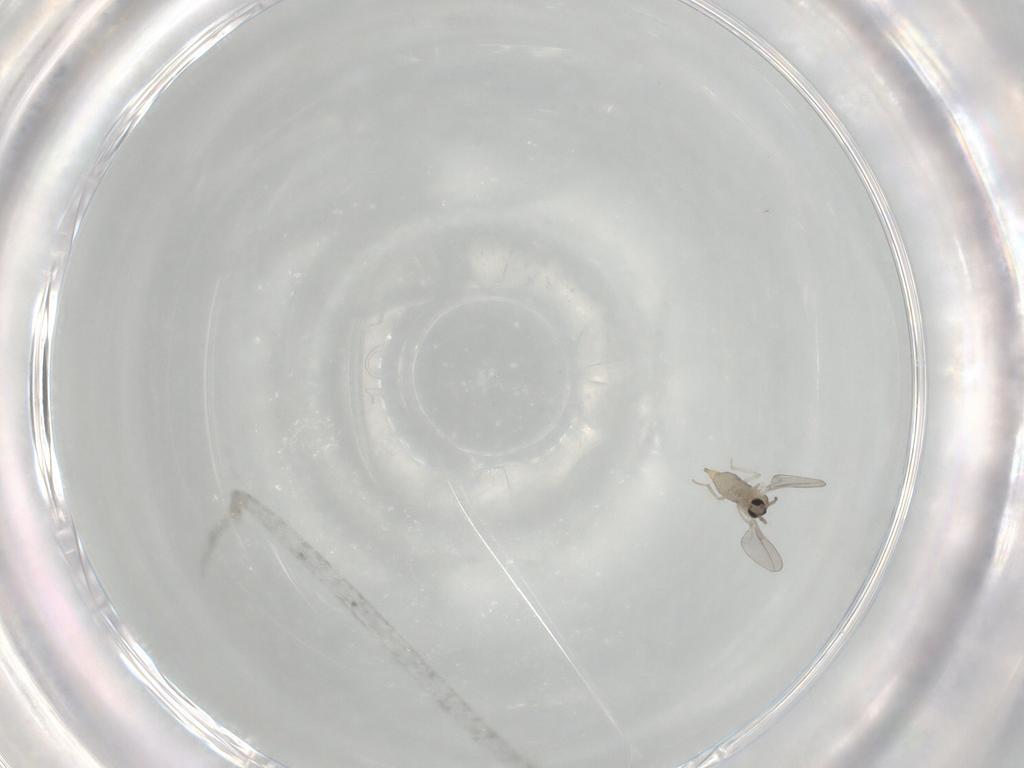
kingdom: Animalia
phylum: Arthropoda
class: Insecta
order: Diptera
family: Cecidomyiidae
